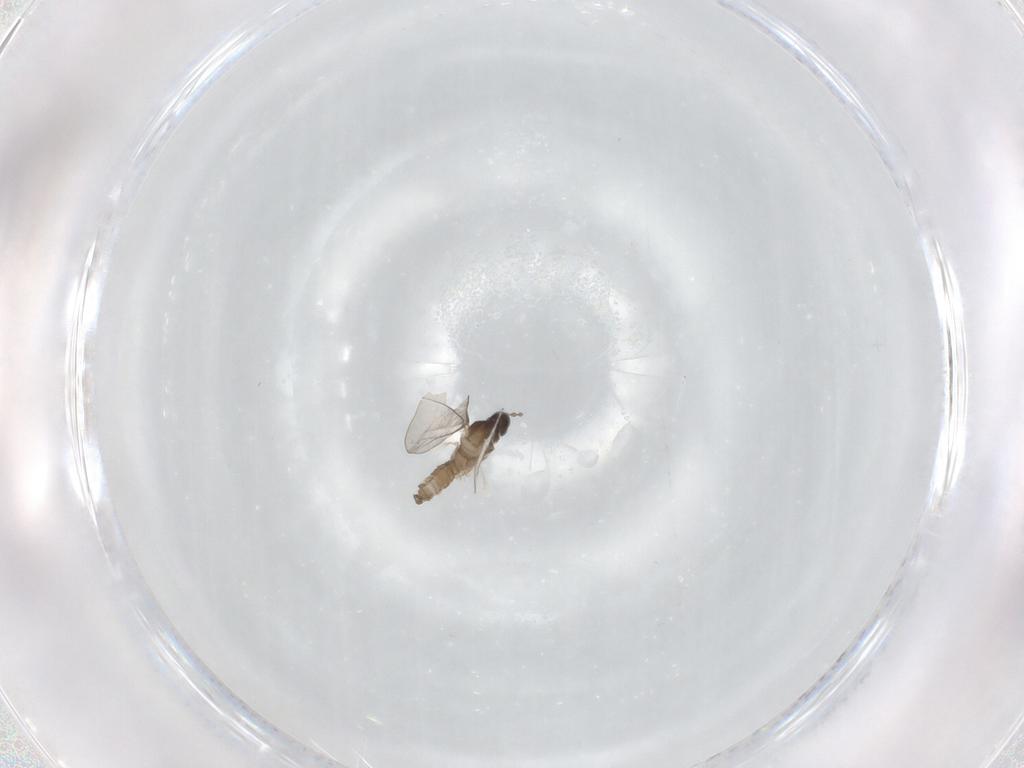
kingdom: Animalia
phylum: Arthropoda
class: Insecta
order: Diptera
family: Cecidomyiidae
